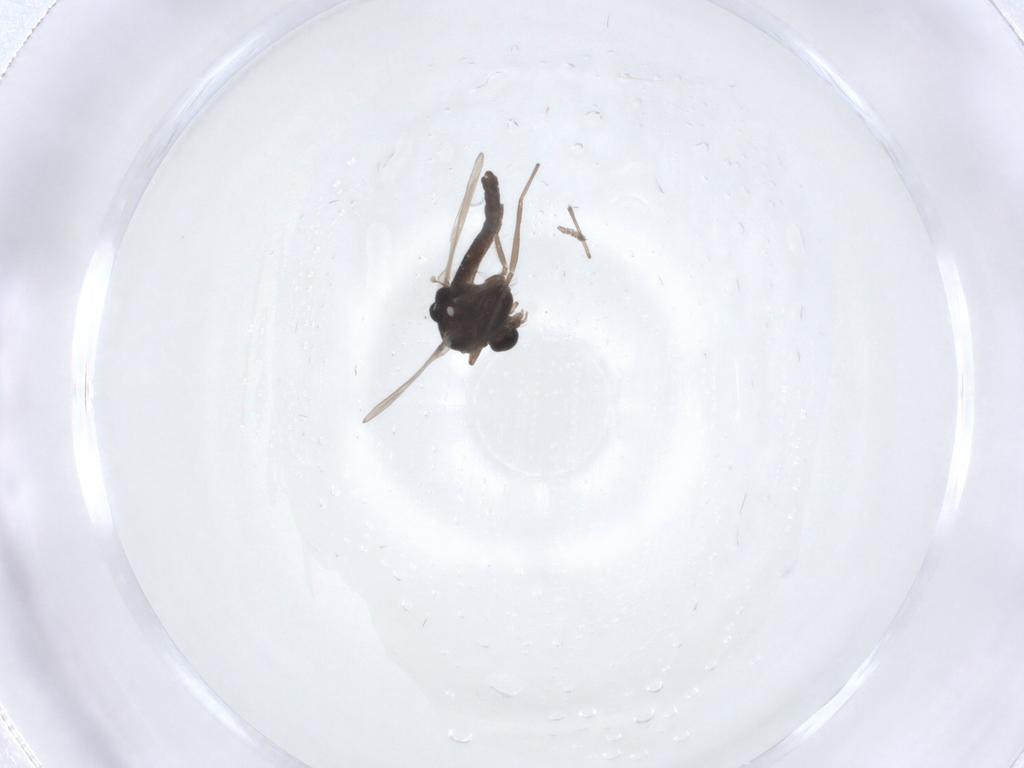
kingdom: Animalia
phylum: Arthropoda
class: Insecta
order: Diptera
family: Chironomidae
